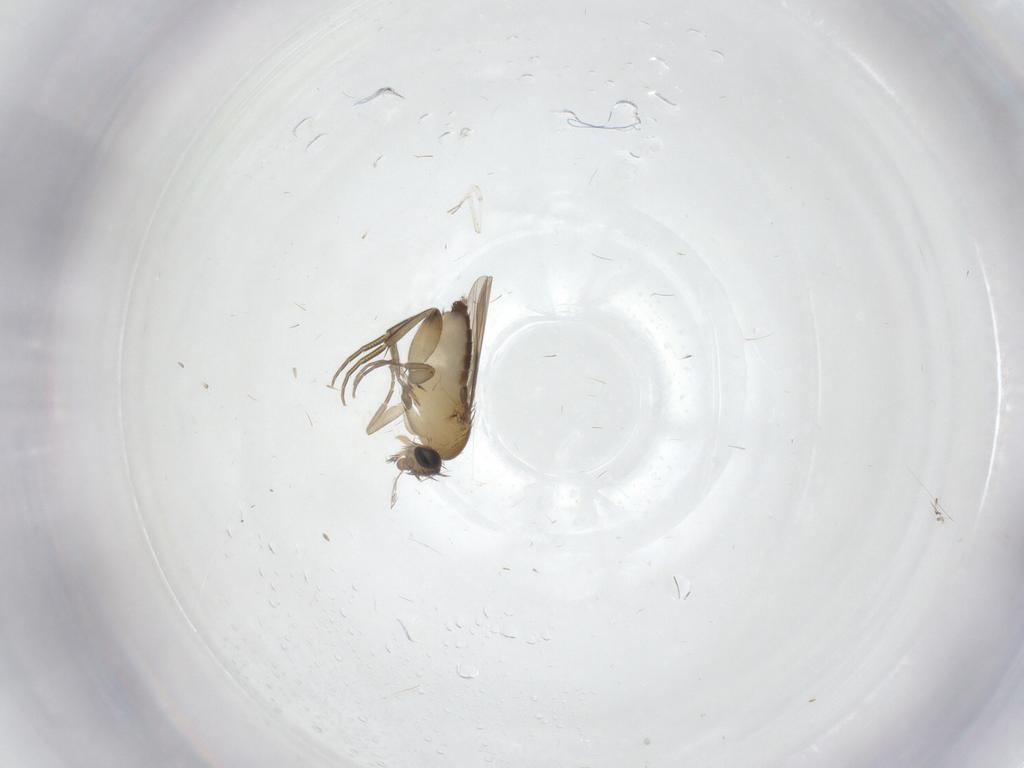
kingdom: Animalia
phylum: Arthropoda
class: Insecta
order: Diptera
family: Phoridae
